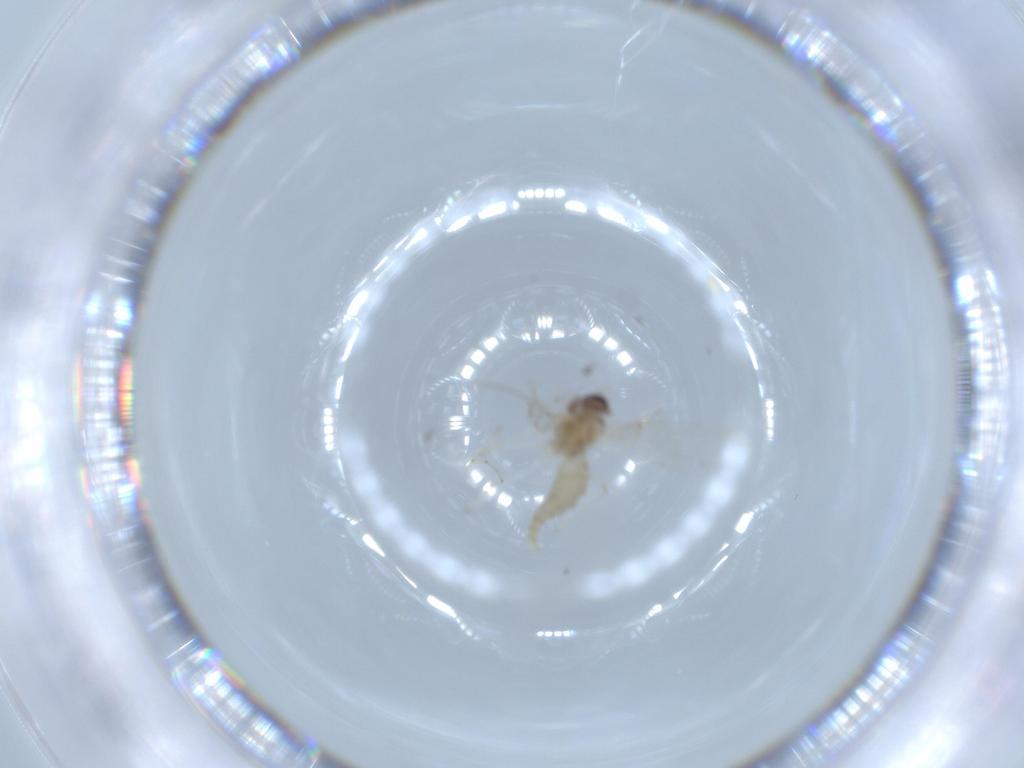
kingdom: Animalia
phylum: Arthropoda
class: Insecta
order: Diptera
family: Cecidomyiidae
